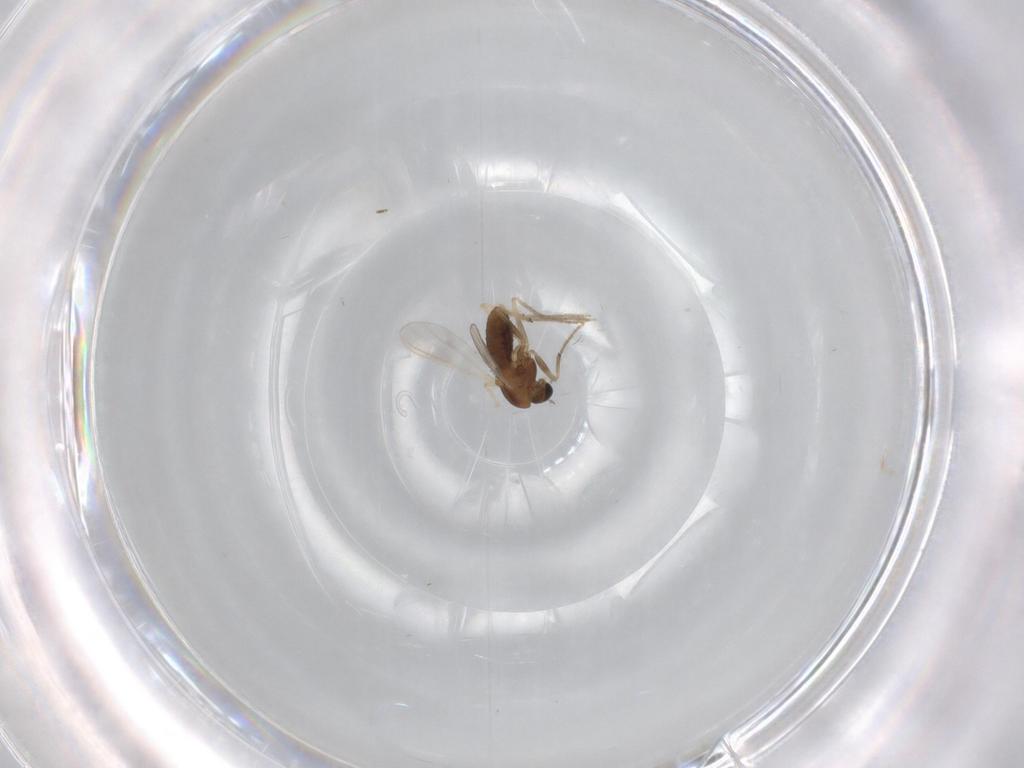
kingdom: Animalia
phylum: Arthropoda
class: Insecta
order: Diptera
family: Chironomidae
